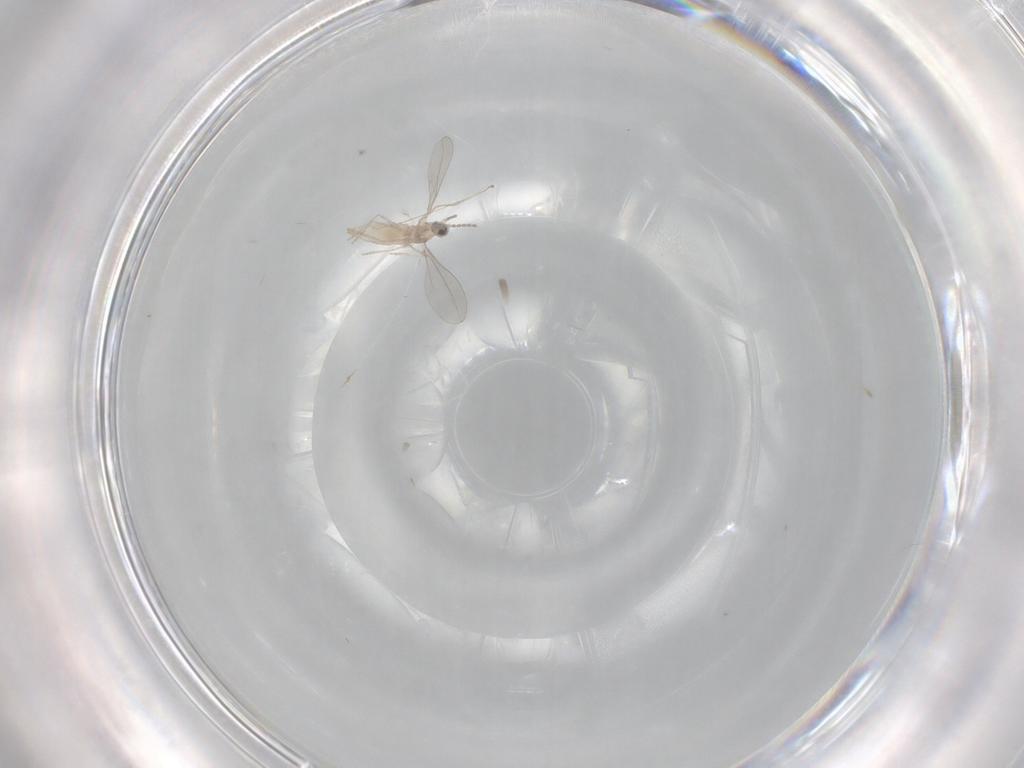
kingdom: Animalia
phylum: Arthropoda
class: Insecta
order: Diptera
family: Cecidomyiidae
